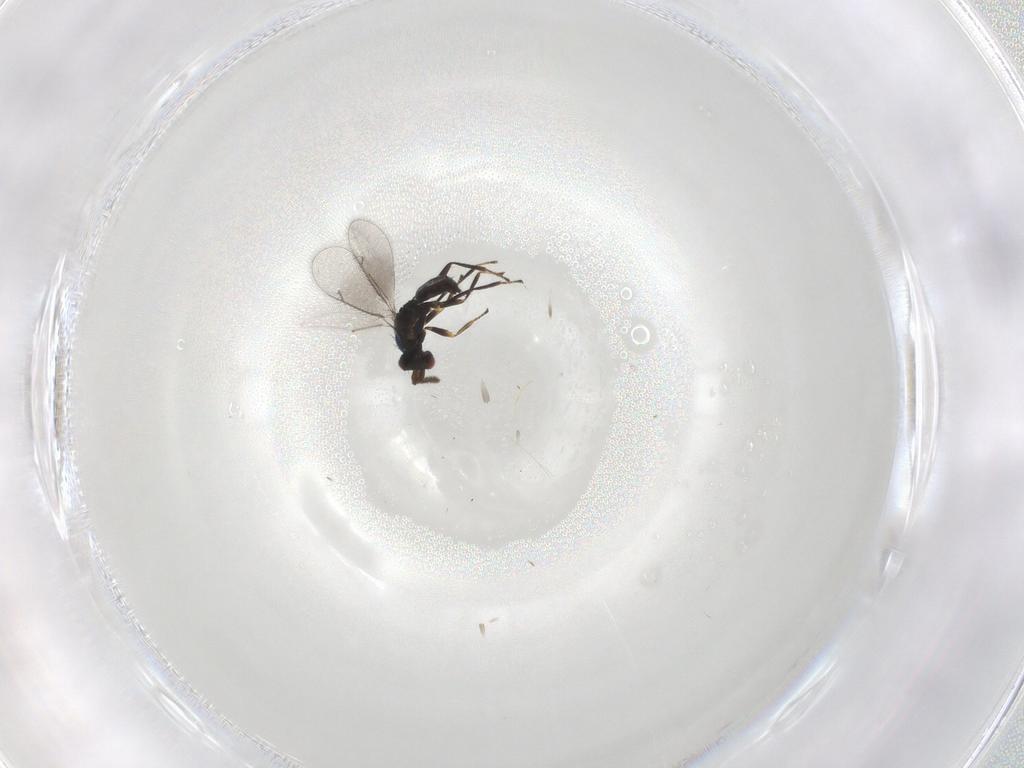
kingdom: Animalia
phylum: Arthropoda
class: Insecta
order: Hymenoptera
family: Eulophidae
